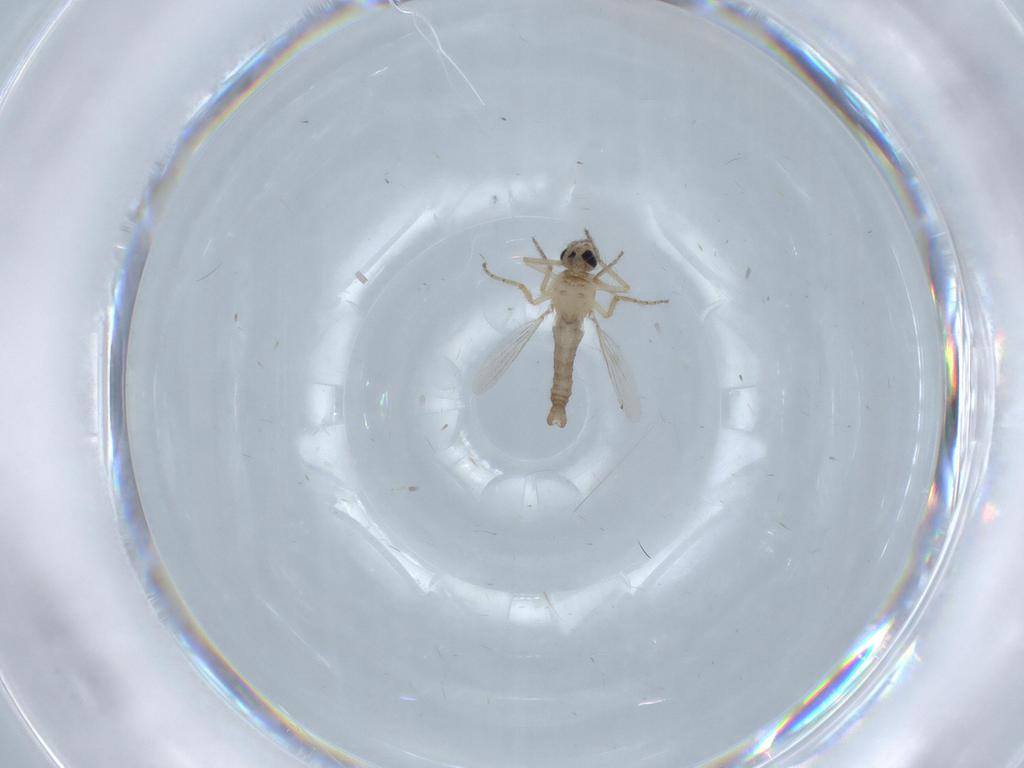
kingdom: Animalia
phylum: Arthropoda
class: Insecta
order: Diptera
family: Ceratopogonidae
